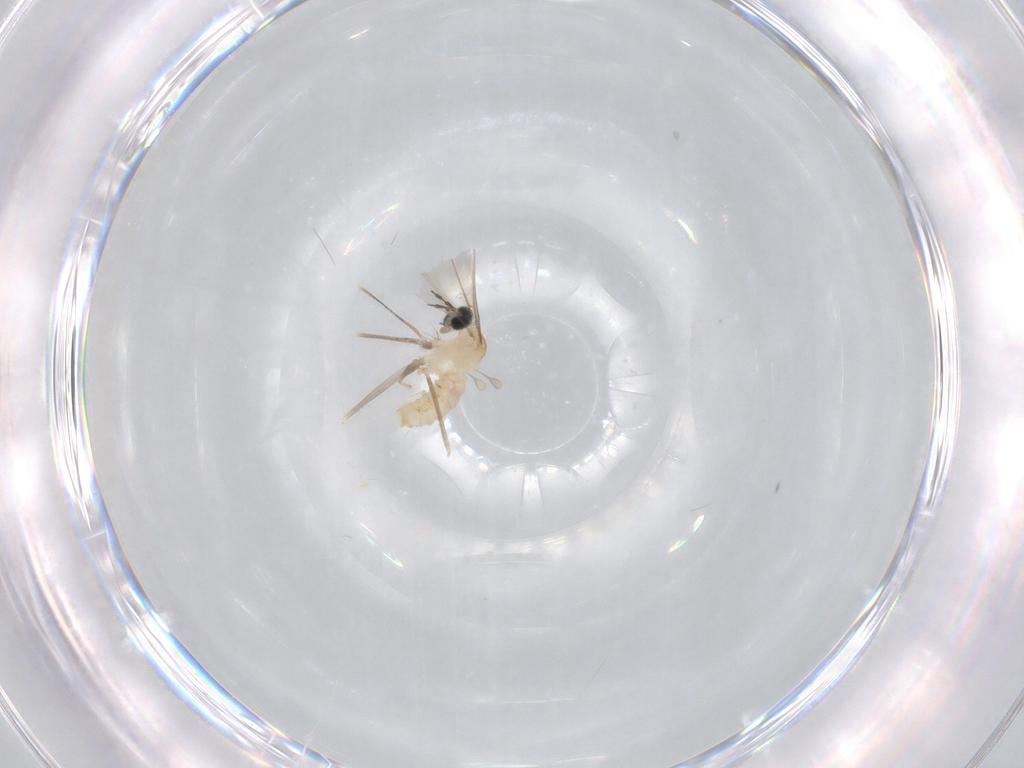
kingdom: Animalia
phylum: Arthropoda
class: Insecta
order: Diptera
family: Cecidomyiidae
